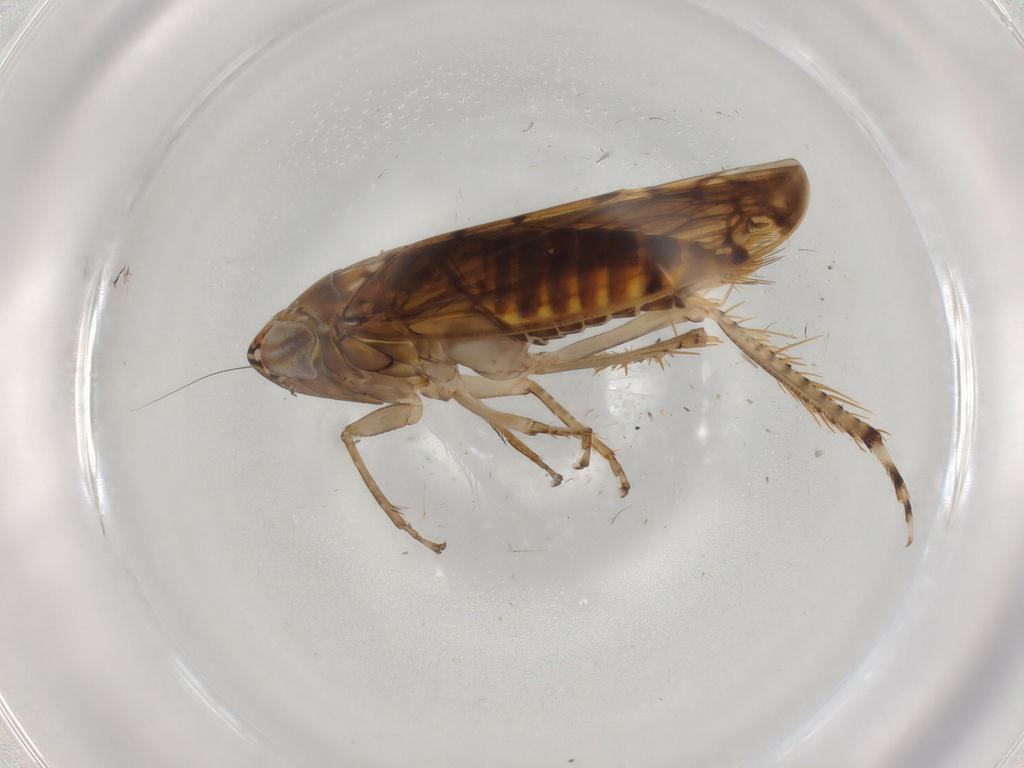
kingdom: Animalia
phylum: Arthropoda
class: Insecta
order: Hemiptera
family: Cicadellidae
